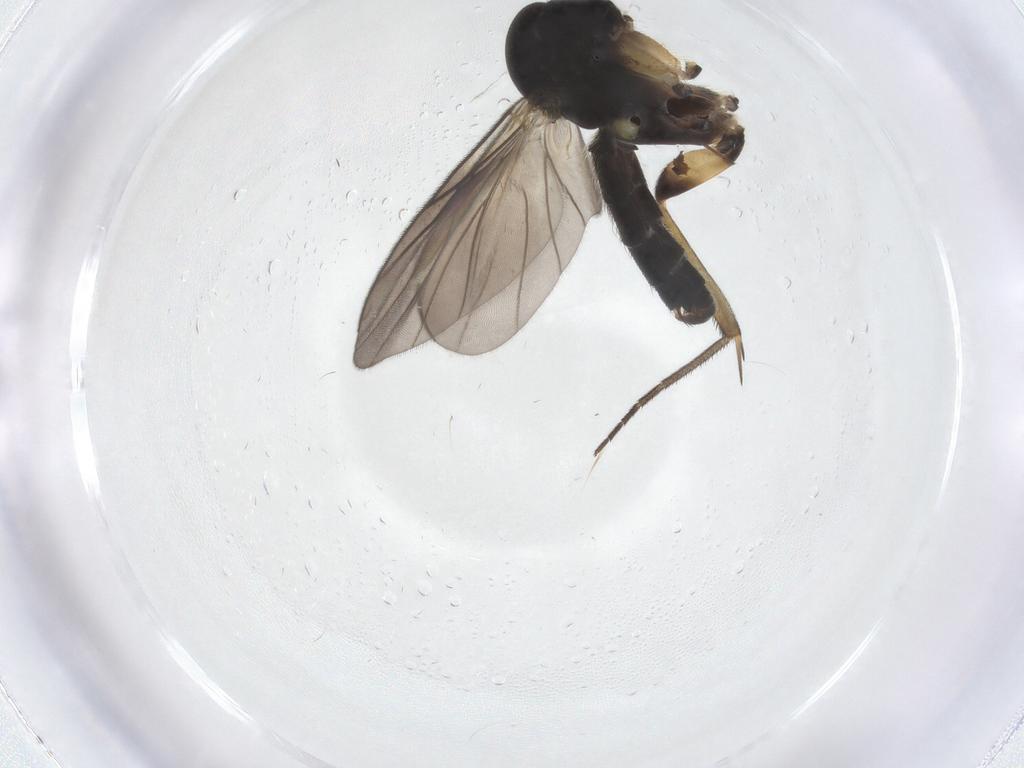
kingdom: Animalia
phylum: Arthropoda
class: Insecta
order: Diptera
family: Mycetophilidae
